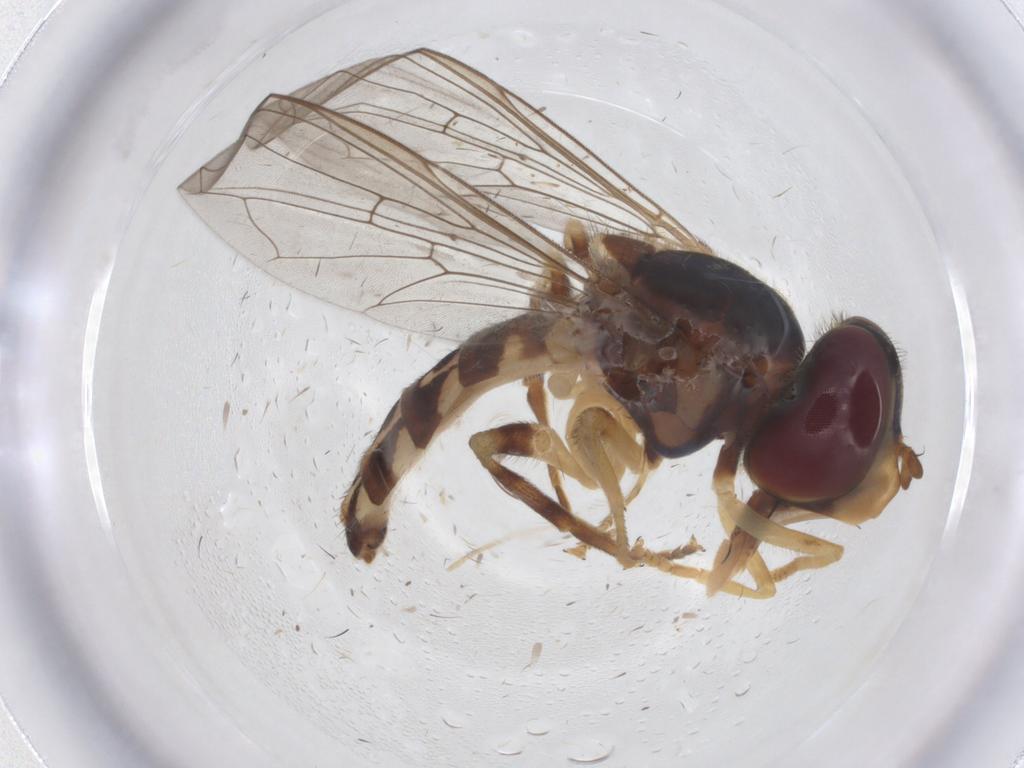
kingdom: Animalia
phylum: Arthropoda
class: Insecta
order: Diptera
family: Syrphidae
